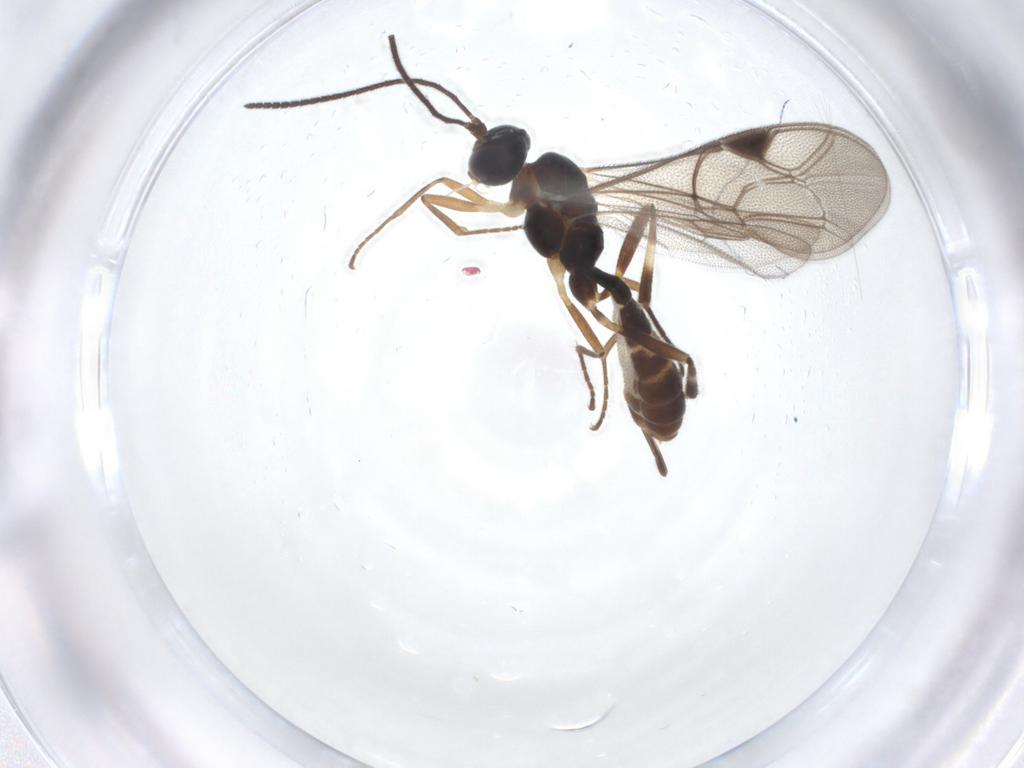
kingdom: Animalia
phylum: Arthropoda
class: Insecta
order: Hymenoptera
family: Ichneumonidae
